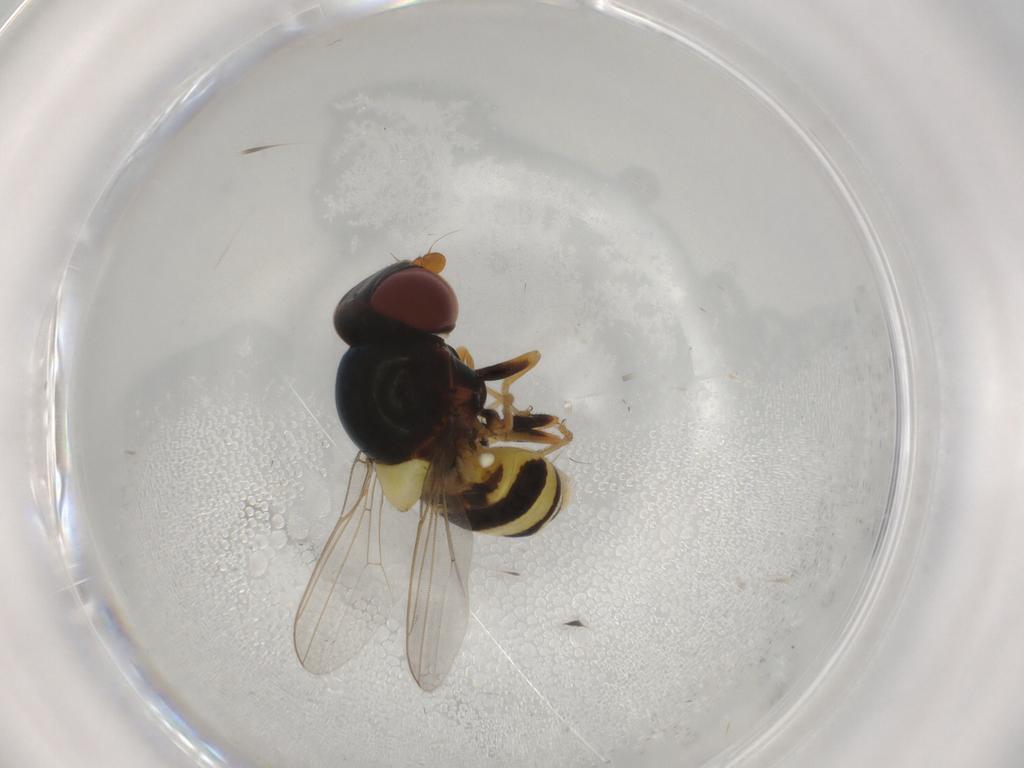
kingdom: Animalia
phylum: Arthropoda
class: Insecta
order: Diptera
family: Chloropidae
